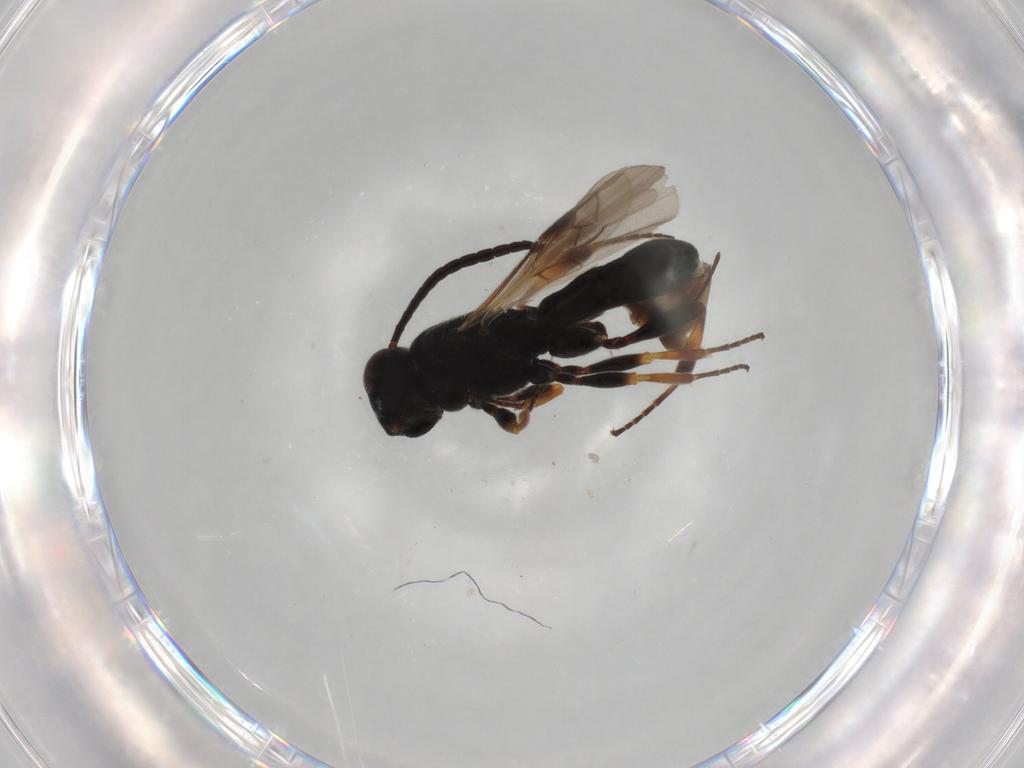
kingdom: Animalia
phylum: Arthropoda
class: Insecta
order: Hymenoptera
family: Braconidae
